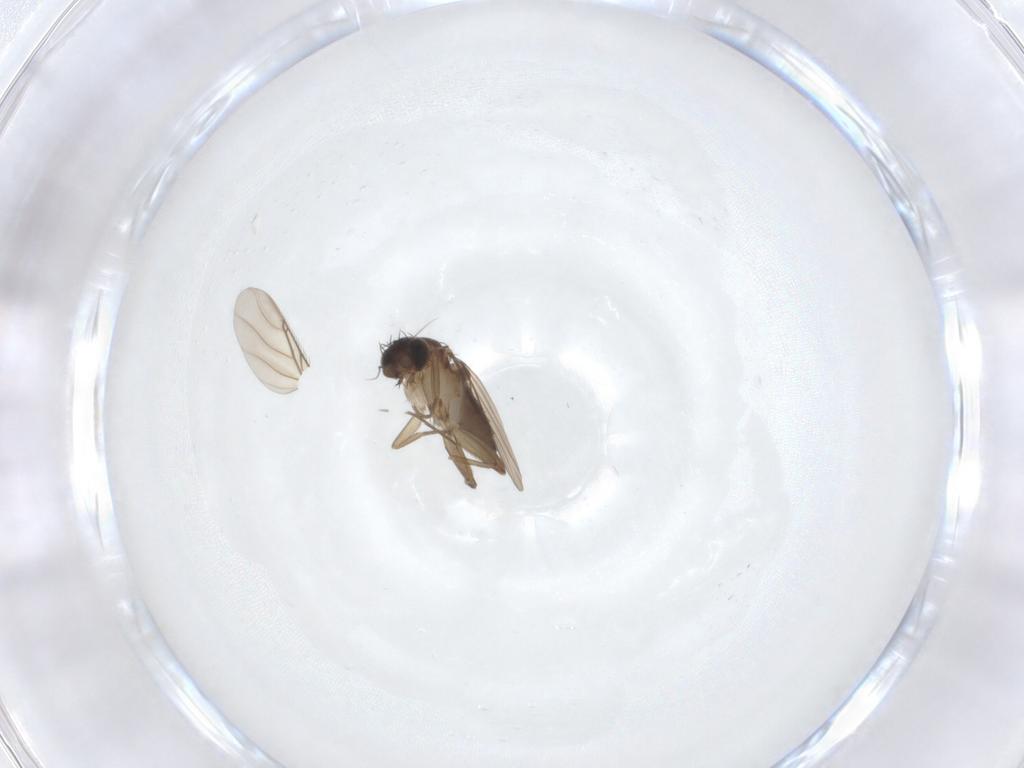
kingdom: Animalia
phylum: Arthropoda
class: Insecta
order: Diptera
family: Phoridae
